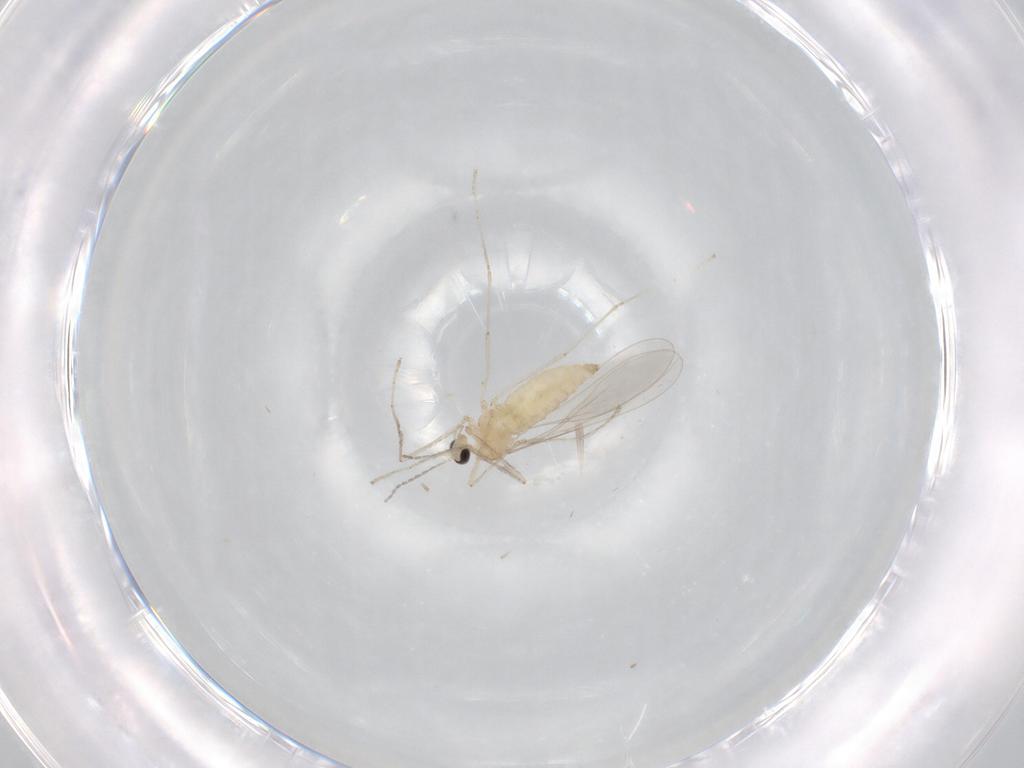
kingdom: Animalia
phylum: Arthropoda
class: Insecta
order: Diptera
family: Cecidomyiidae
